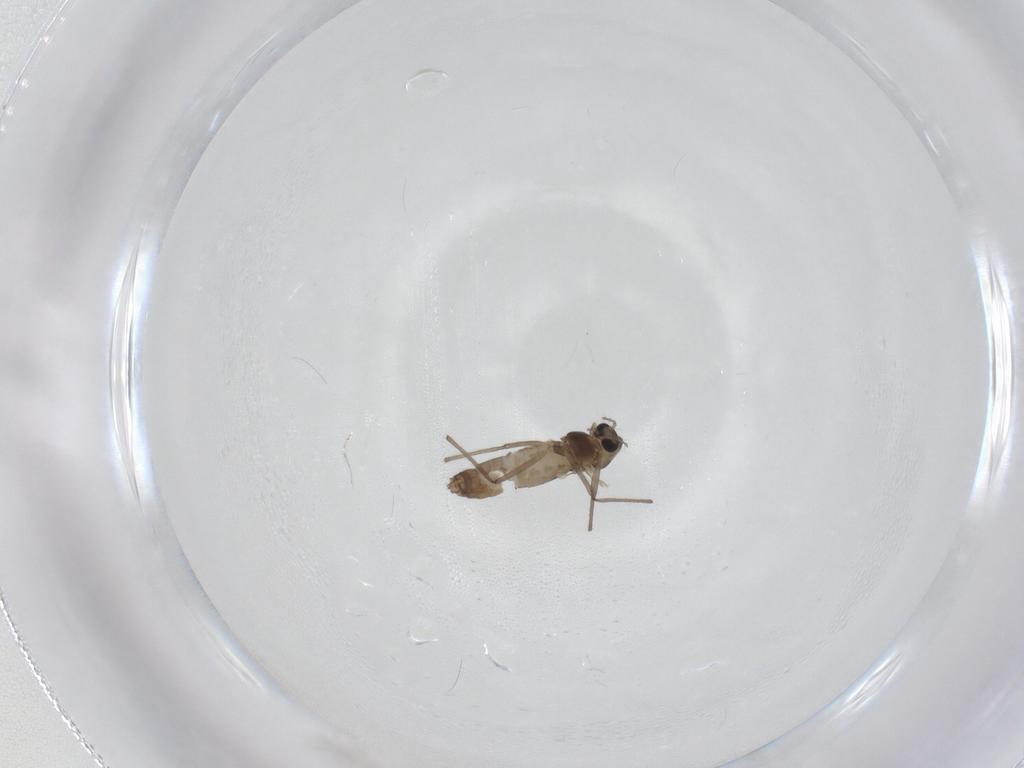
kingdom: Animalia
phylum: Arthropoda
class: Insecta
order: Diptera
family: Chironomidae
